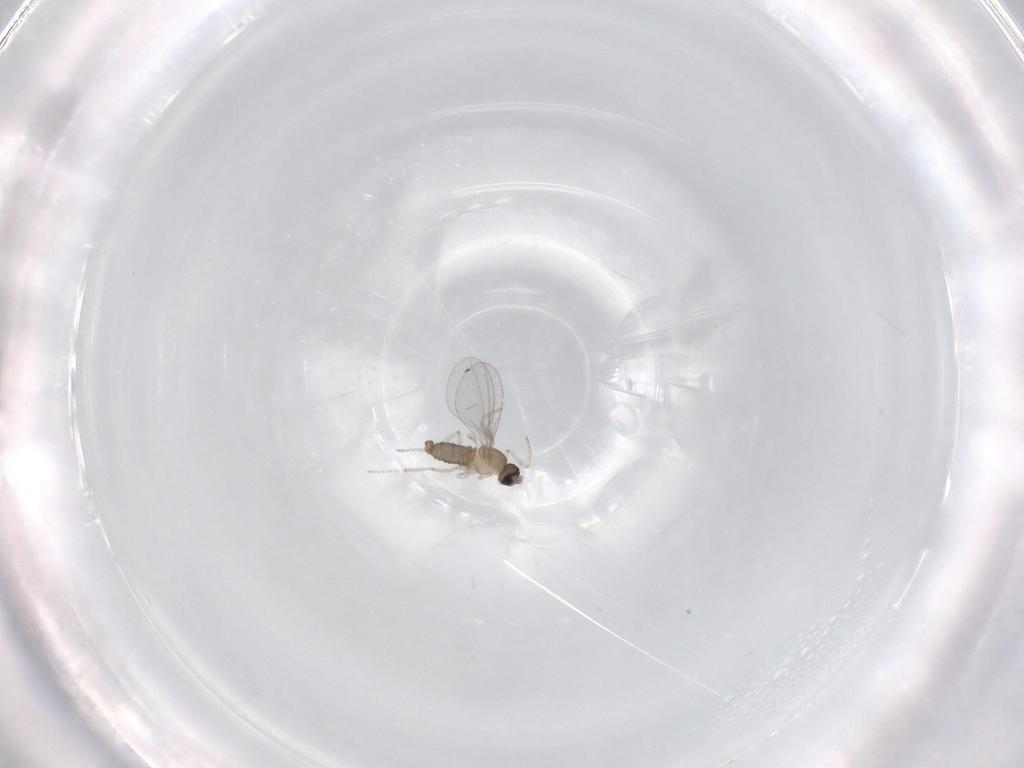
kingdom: Animalia
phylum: Arthropoda
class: Insecta
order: Diptera
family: Cecidomyiidae
